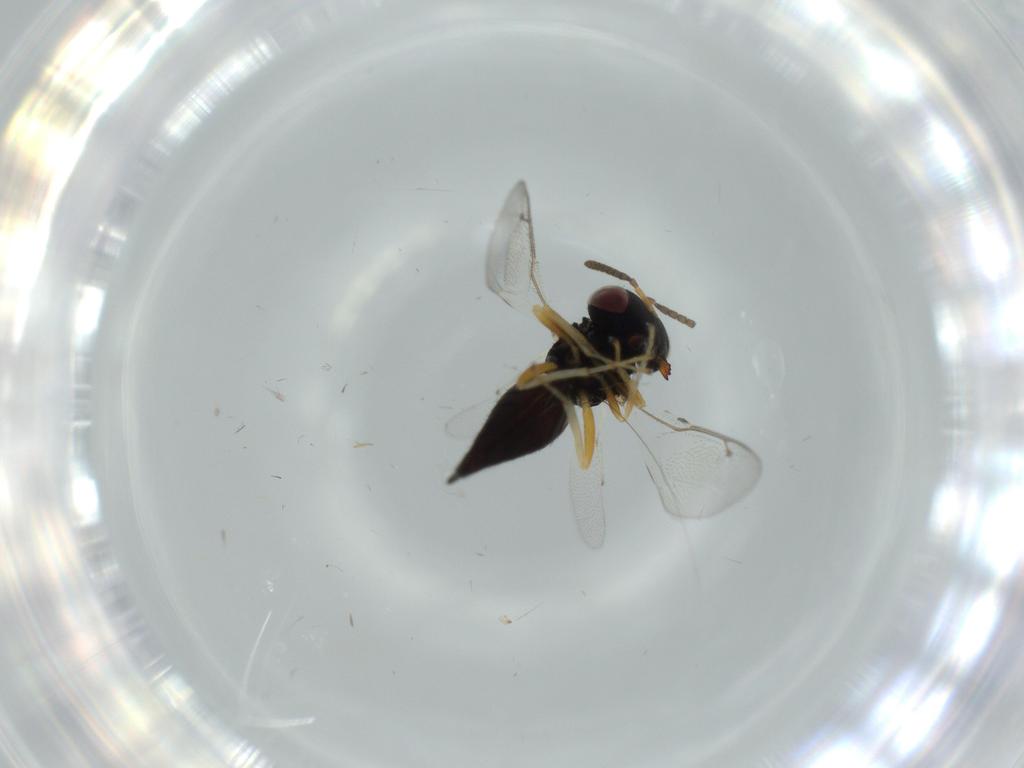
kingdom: Animalia
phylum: Arthropoda
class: Insecta
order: Hymenoptera
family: Pteromalidae
